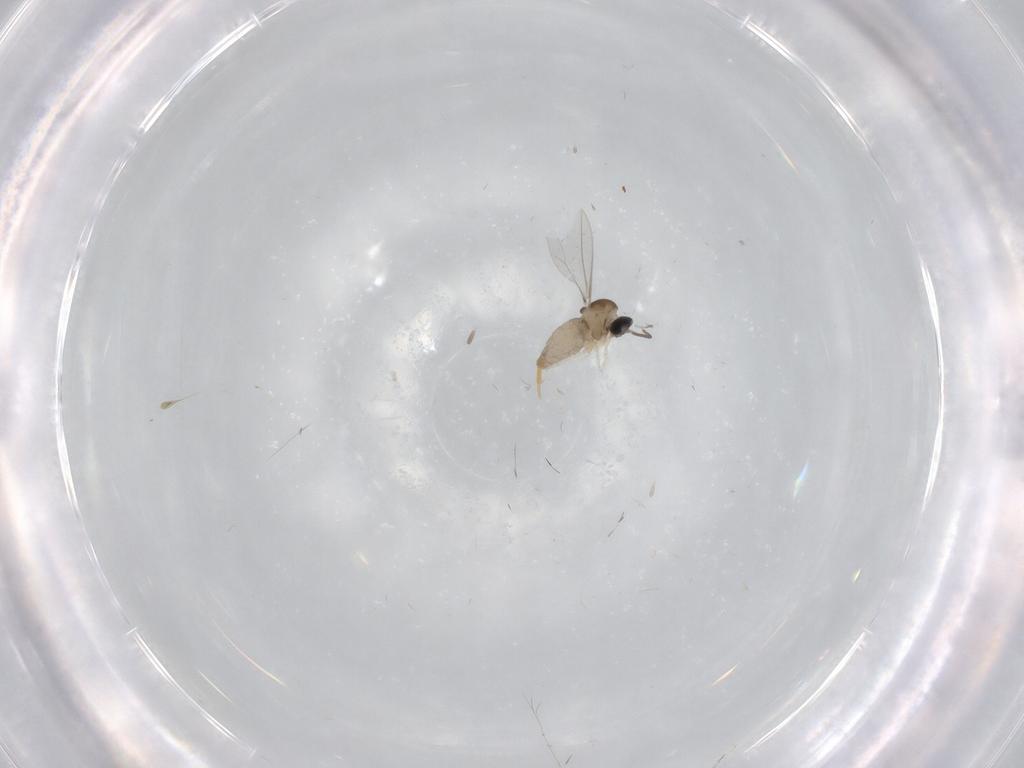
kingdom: Animalia
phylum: Arthropoda
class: Insecta
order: Diptera
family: Cecidomyiidae
